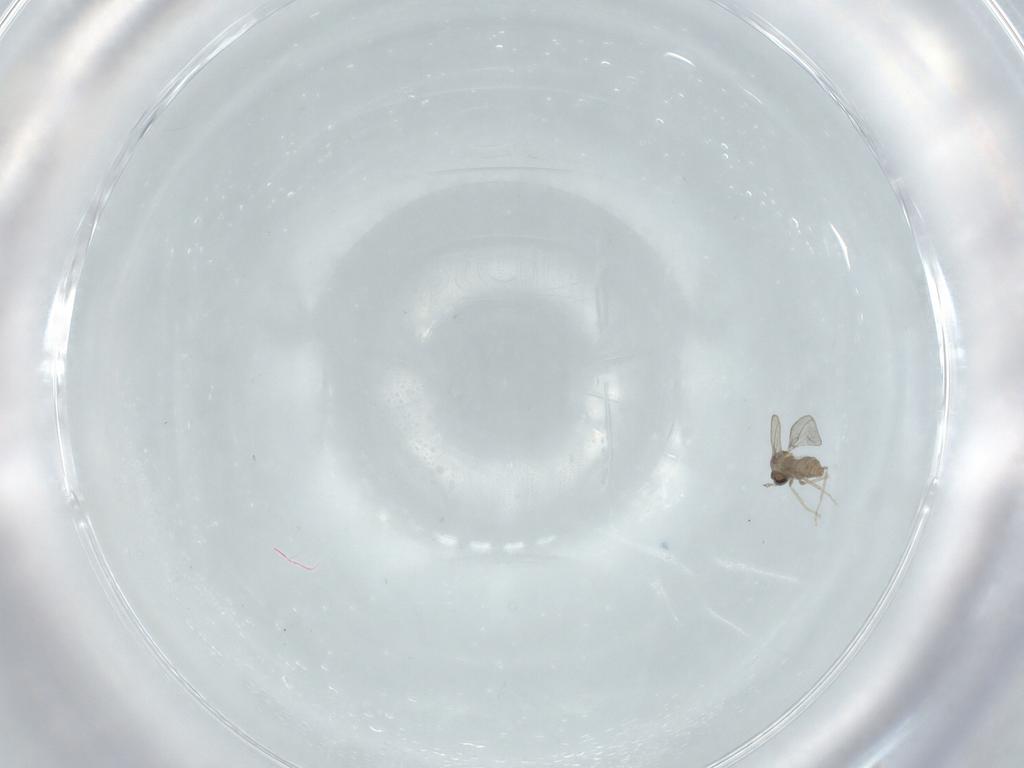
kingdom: Animalia
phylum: Arthropoda
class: Insecta
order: Diptera
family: Cecidomyiidae
